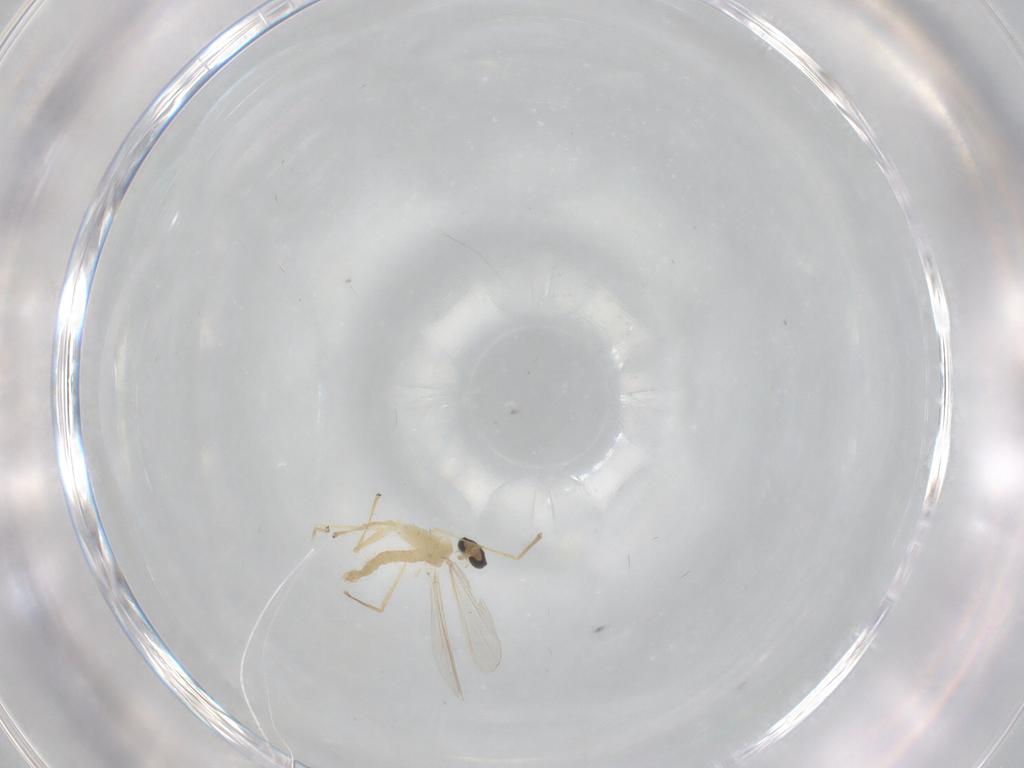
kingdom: Animalia
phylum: Arthropoda
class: Insecta
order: Diptera
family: Chironomidae
